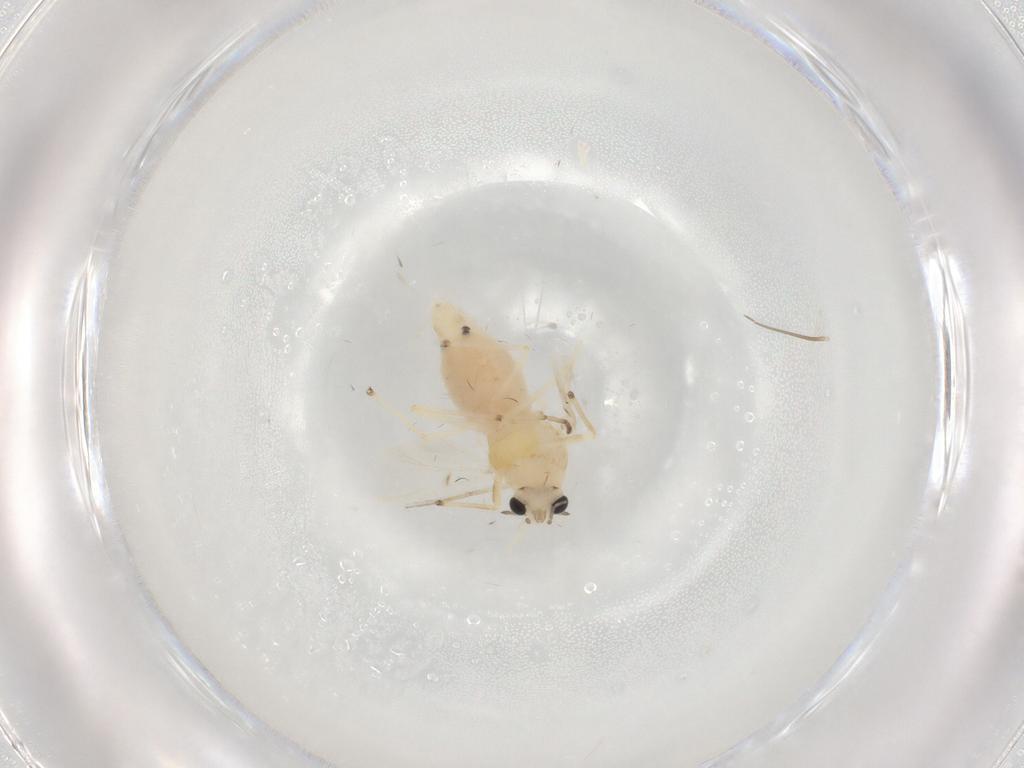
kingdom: Animalia
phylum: Arthropoda
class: Insecta
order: Diptera
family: Chironomidae
